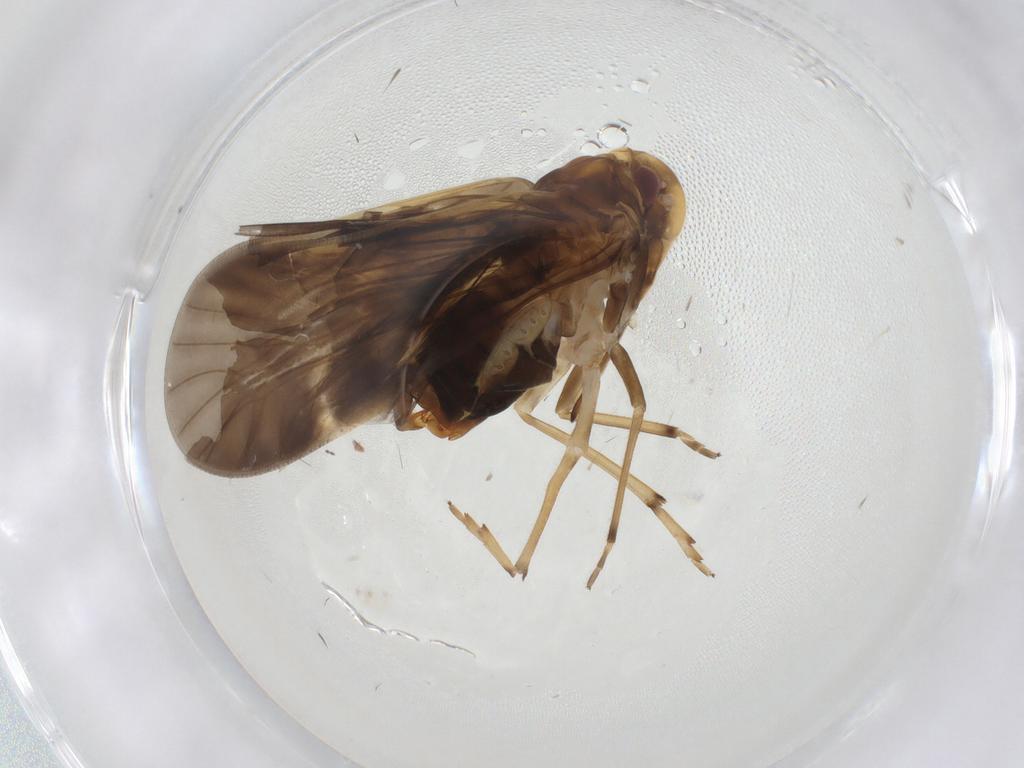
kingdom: Animalia
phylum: Arthropoda
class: Insecta
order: Hemiptera
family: Cixiidae
